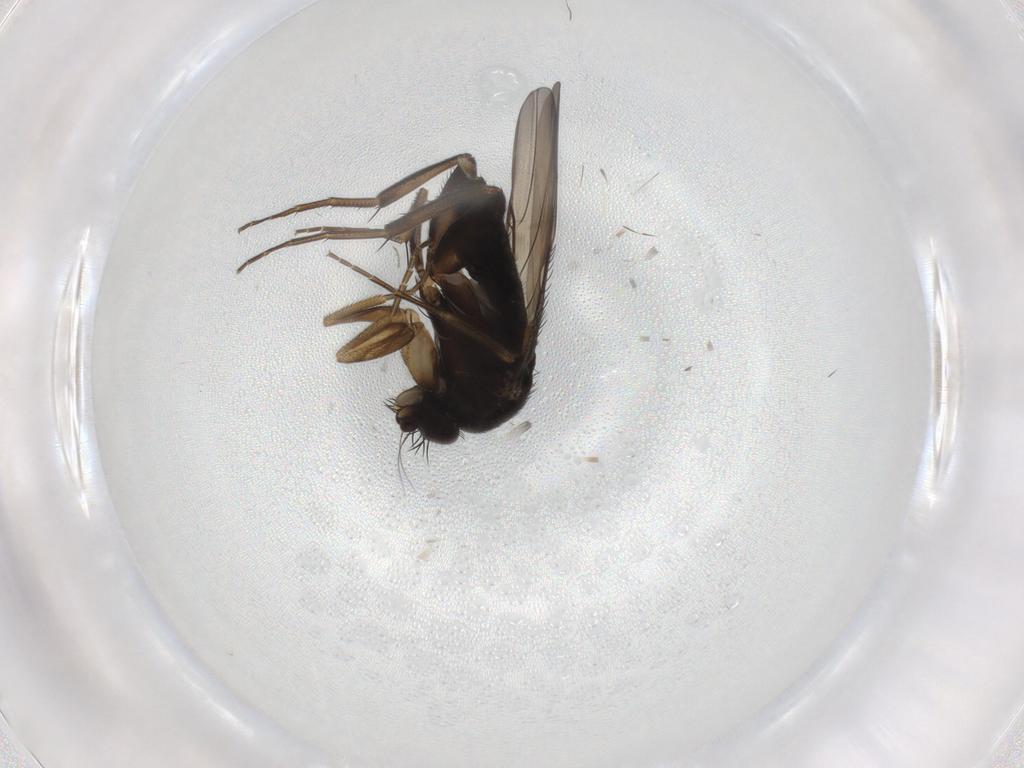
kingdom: Animalia
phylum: Arthropoda
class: Insecta
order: Diptera
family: Phoridae
